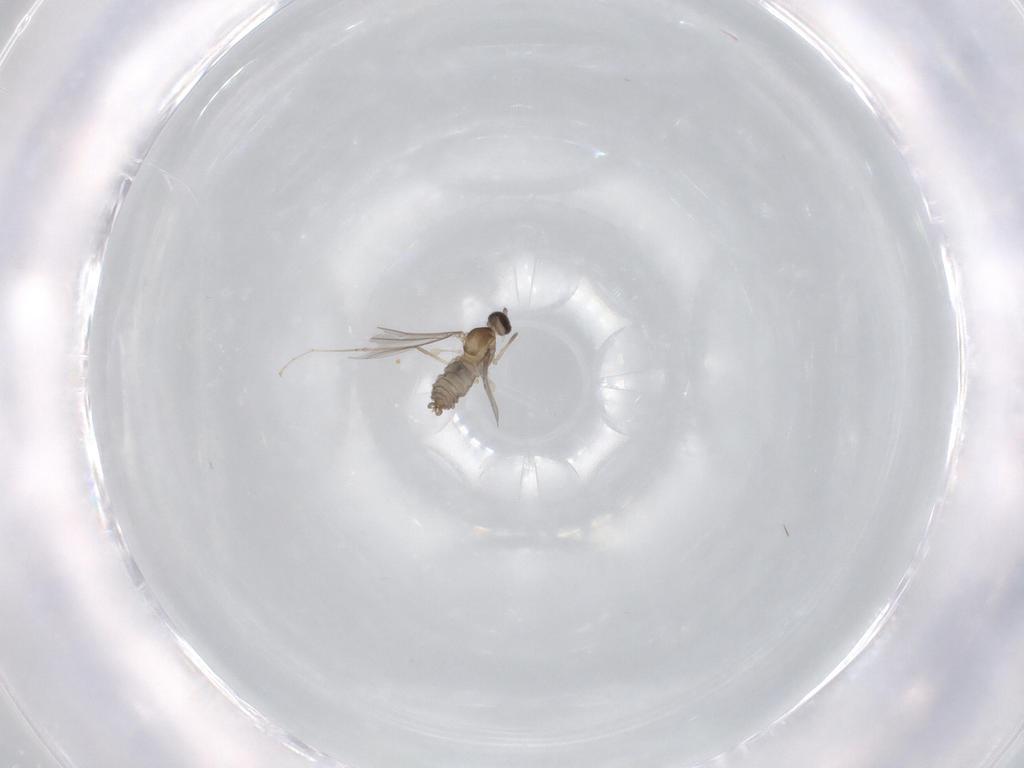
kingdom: Animalia
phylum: Arthropoda
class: Insecta
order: Diptera
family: Cecidomyiidae
